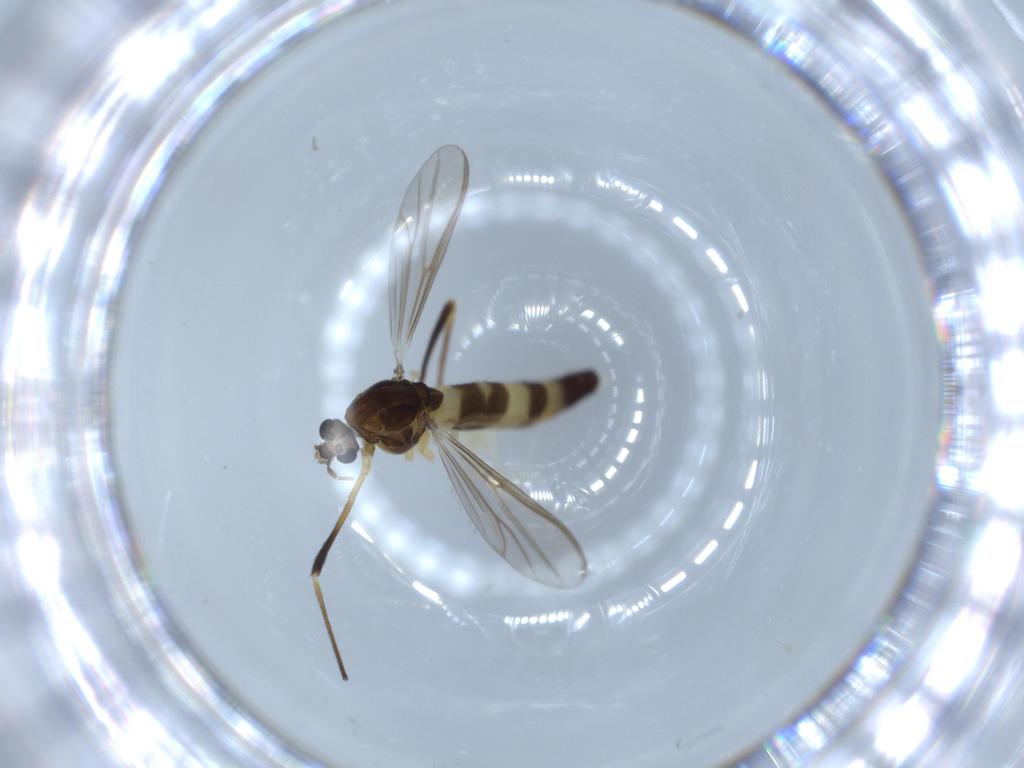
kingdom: Animalia
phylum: Arthropoda
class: Insecta
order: Diptera
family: Chironomidae
